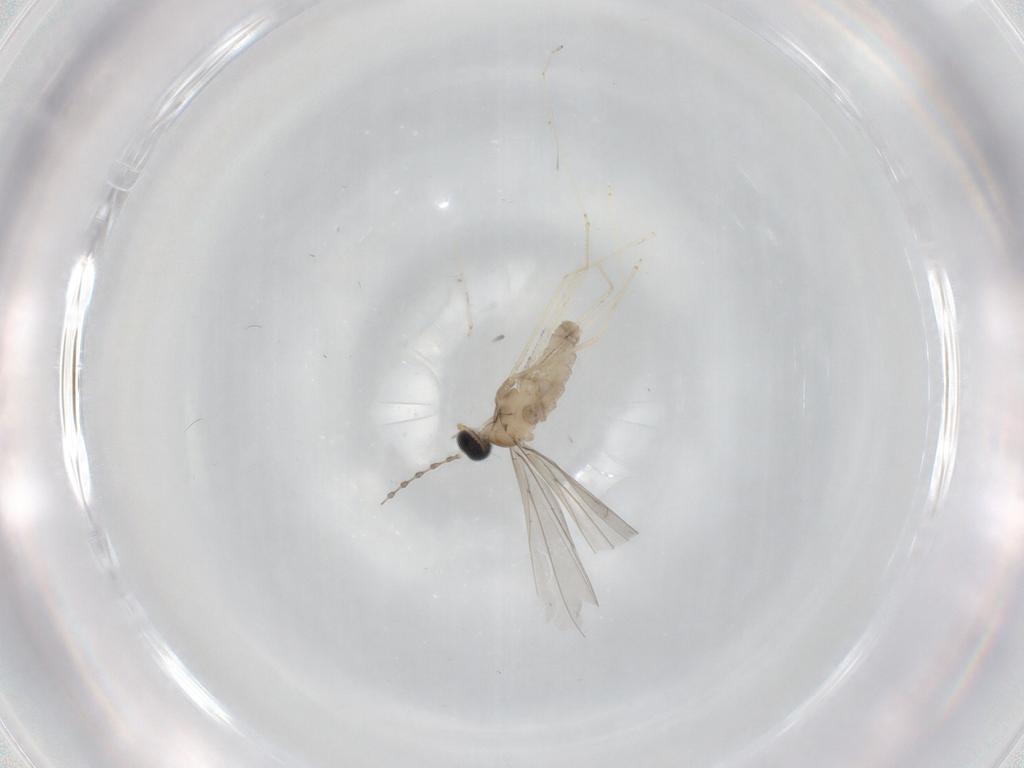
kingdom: Animalia
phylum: Arthropoda
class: Insecta
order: Diptera
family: Cecidomyiidae
